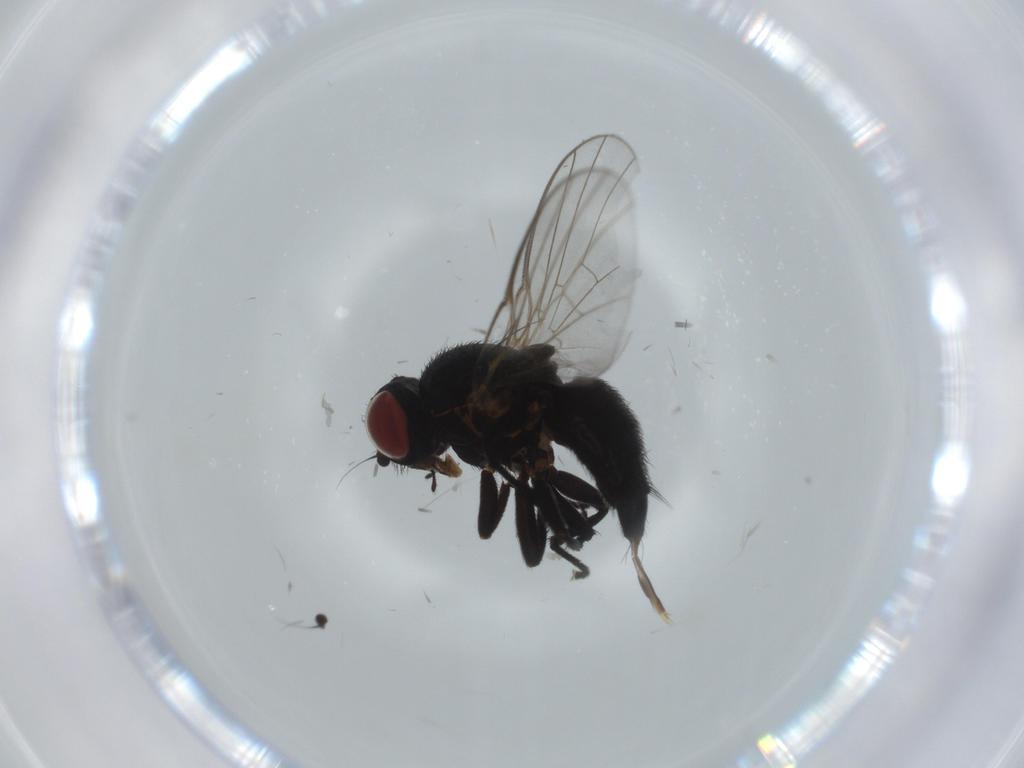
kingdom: Animalia
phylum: Arthropoda
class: Insecta
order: Diptera
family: Agromyzidae
